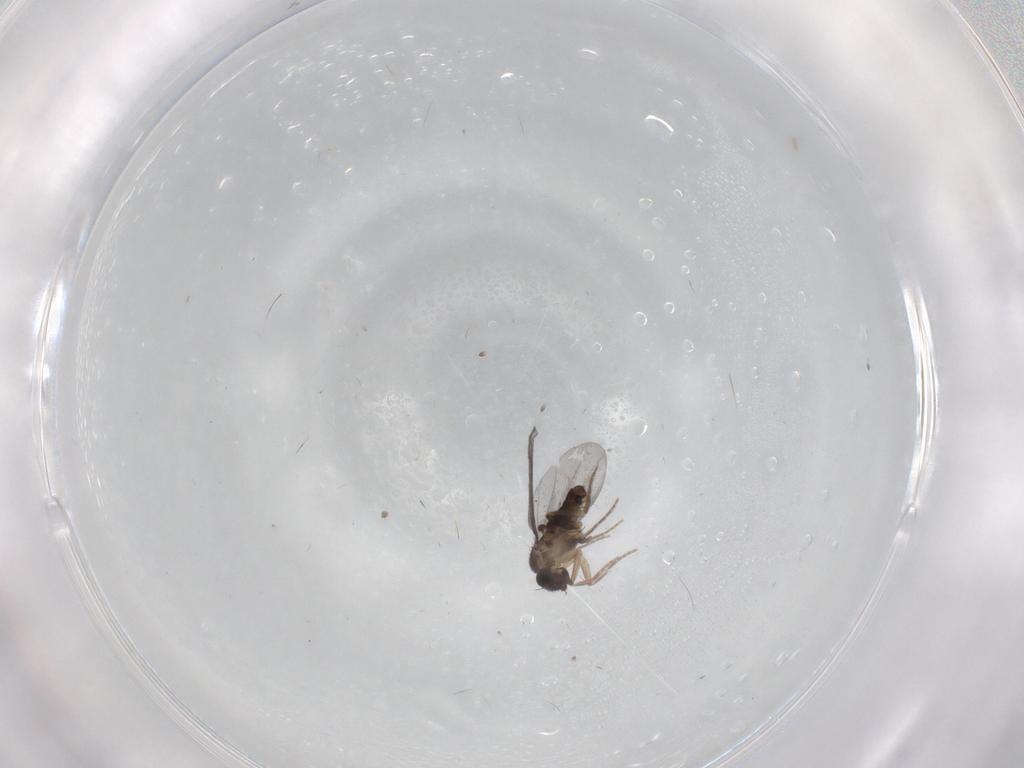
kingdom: Animalia
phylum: Arthropoda
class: Insecta
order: Diptera
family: Phoridae
